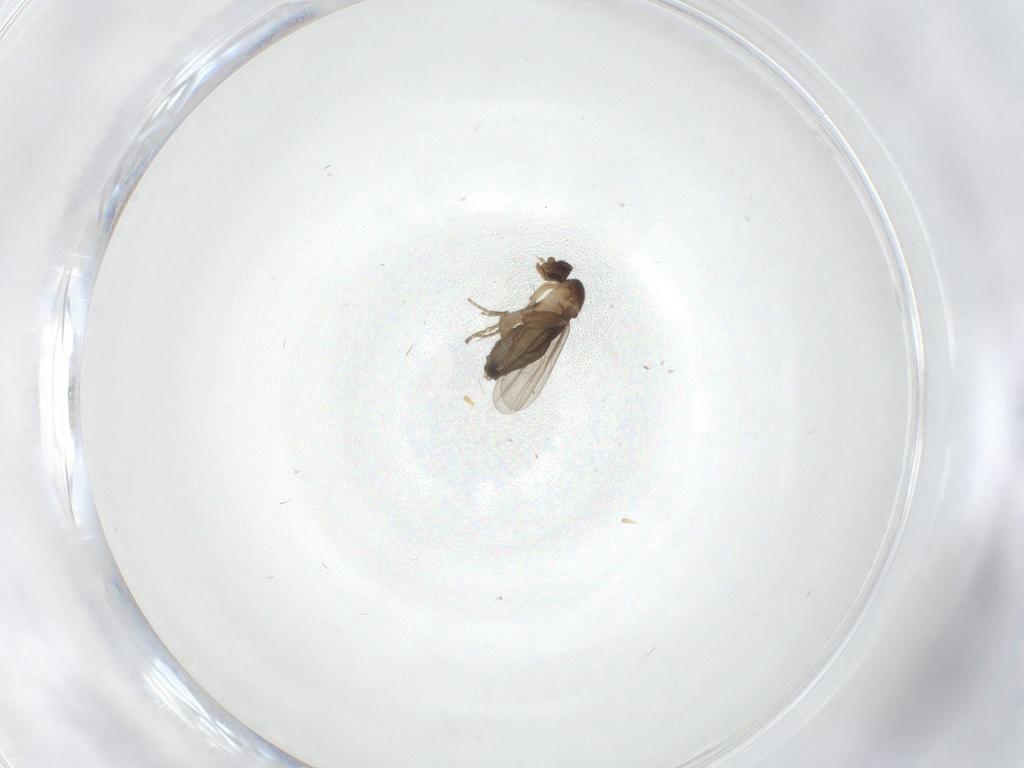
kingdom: Animalia
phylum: Arthropoda
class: Insecta
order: Diptera
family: Phoridae
